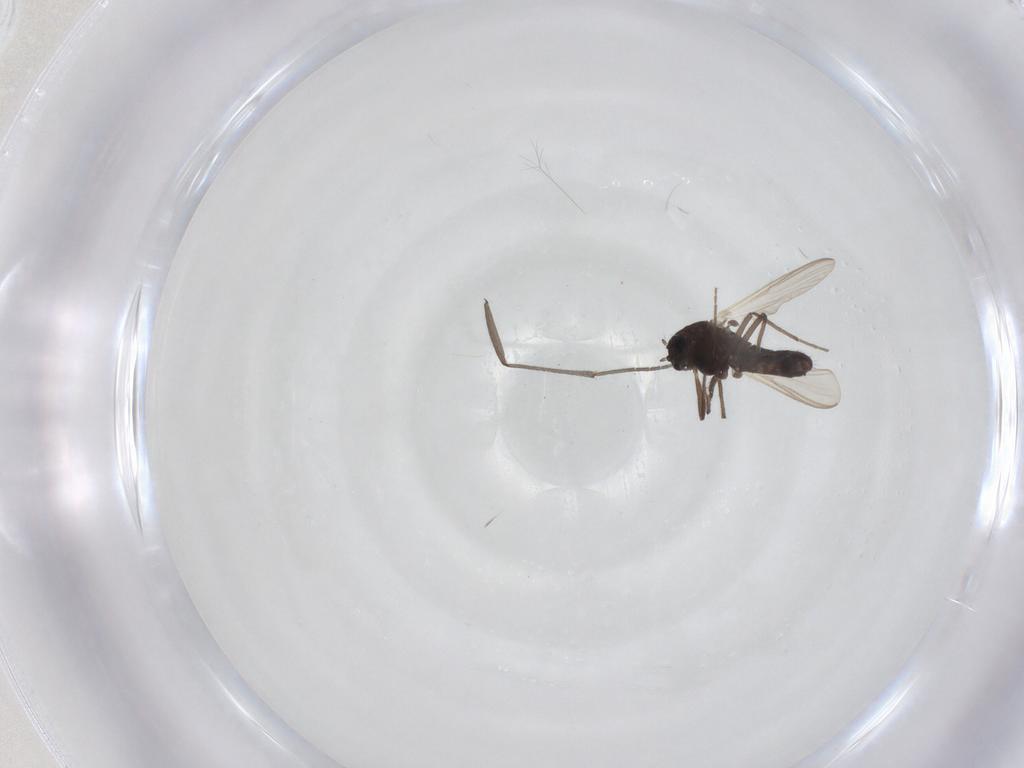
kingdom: Animalia
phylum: Arthropoda
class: Insecta
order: Diptera
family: Chironomidae
